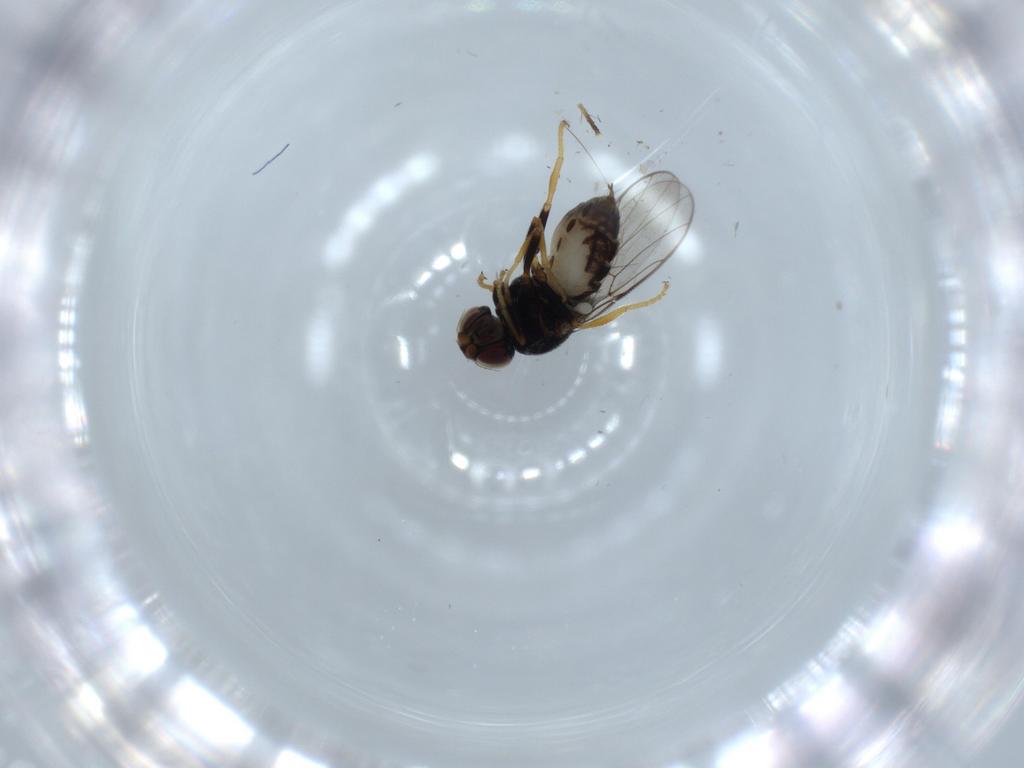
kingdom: Animalia
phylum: Arthropoda
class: Insecta
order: Diptera
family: Chloropidae
